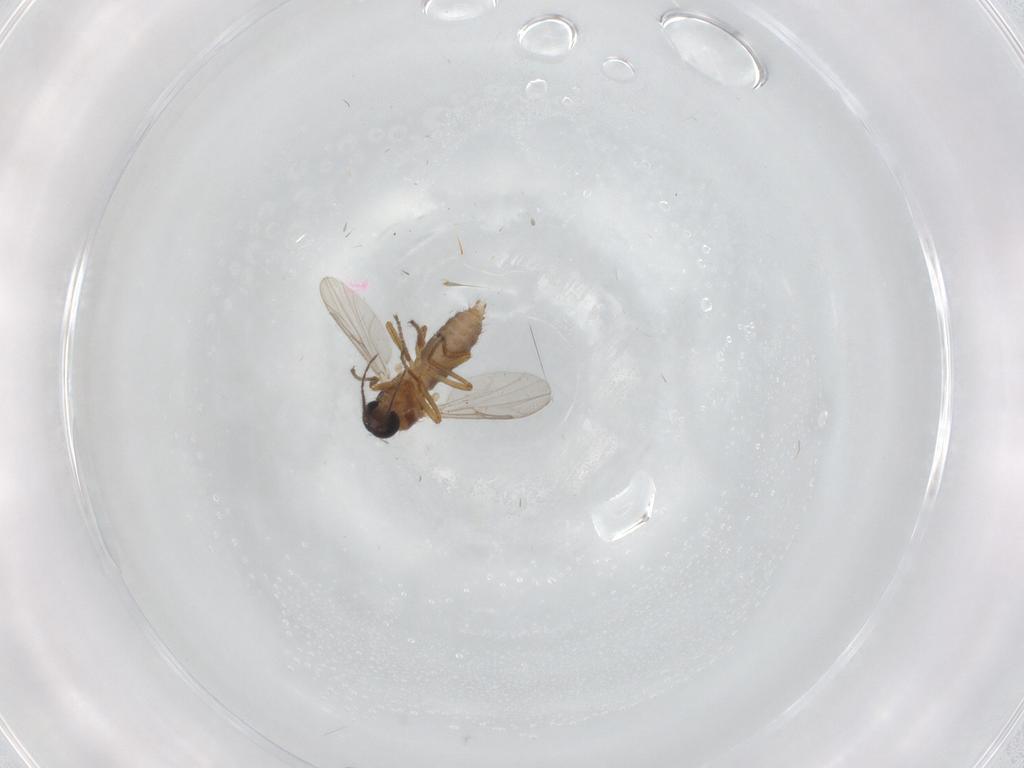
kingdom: Animalia
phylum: Arthropoda
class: Insecta
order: Diptera
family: Ceratopogonidae
